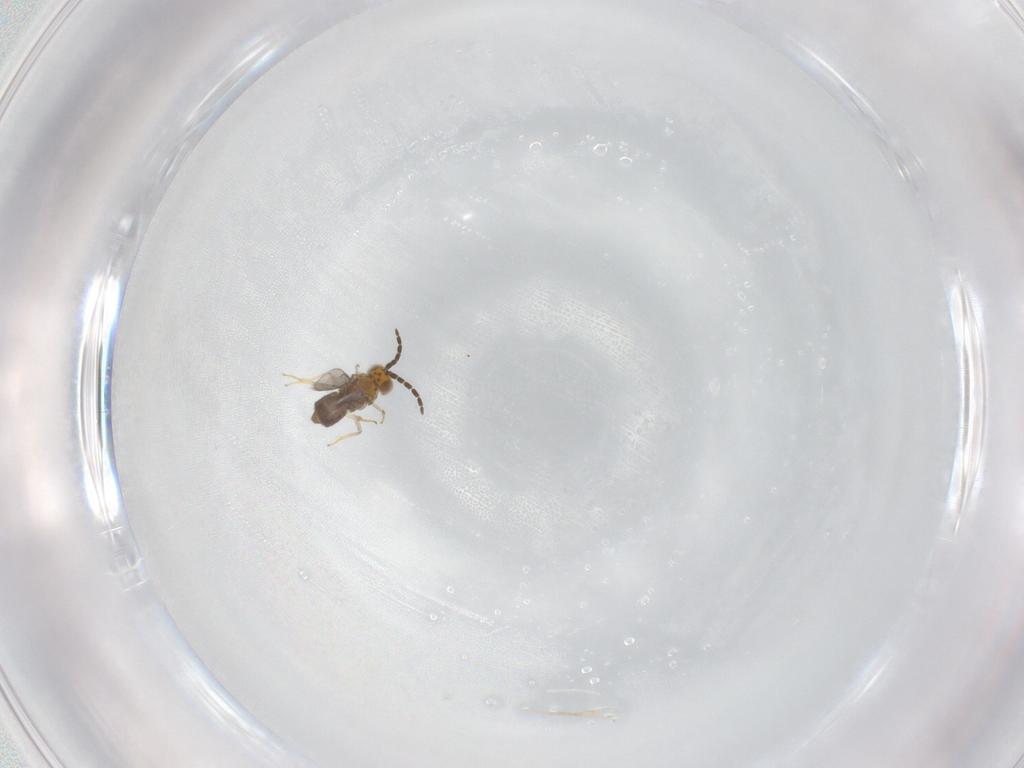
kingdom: Animalia
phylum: Arthropoda
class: Insecta
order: Hymenoptera
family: Aphelinidae
